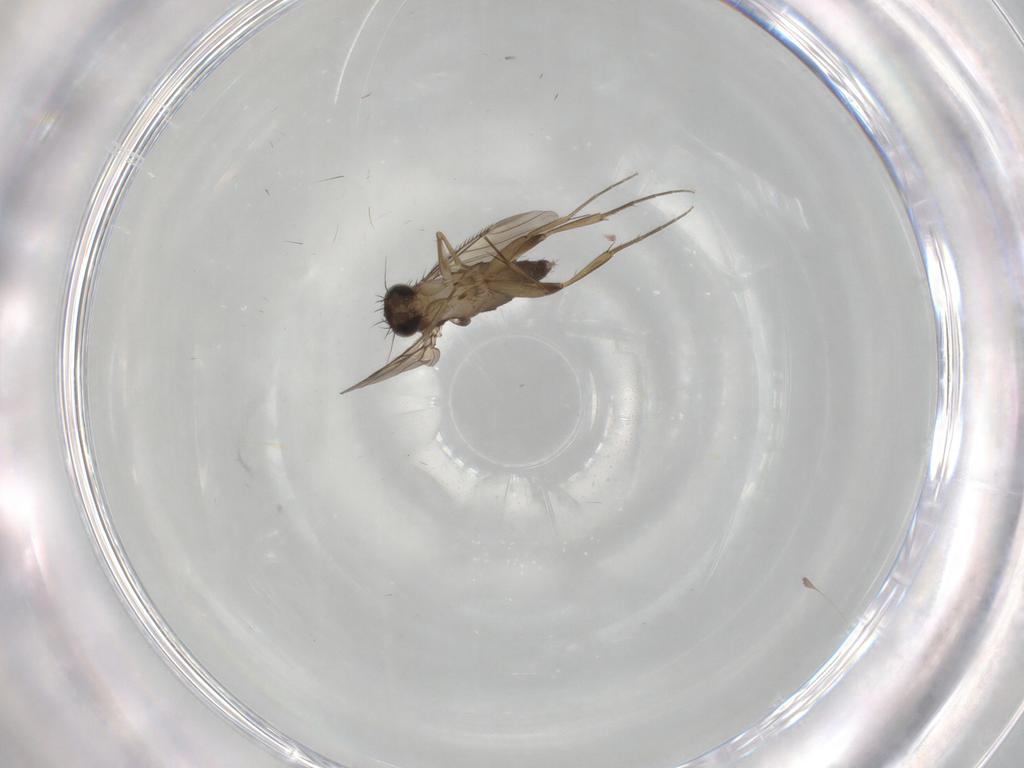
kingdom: Animalia
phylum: Arthropoda
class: Insecta
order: Diptera
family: Phoridae
